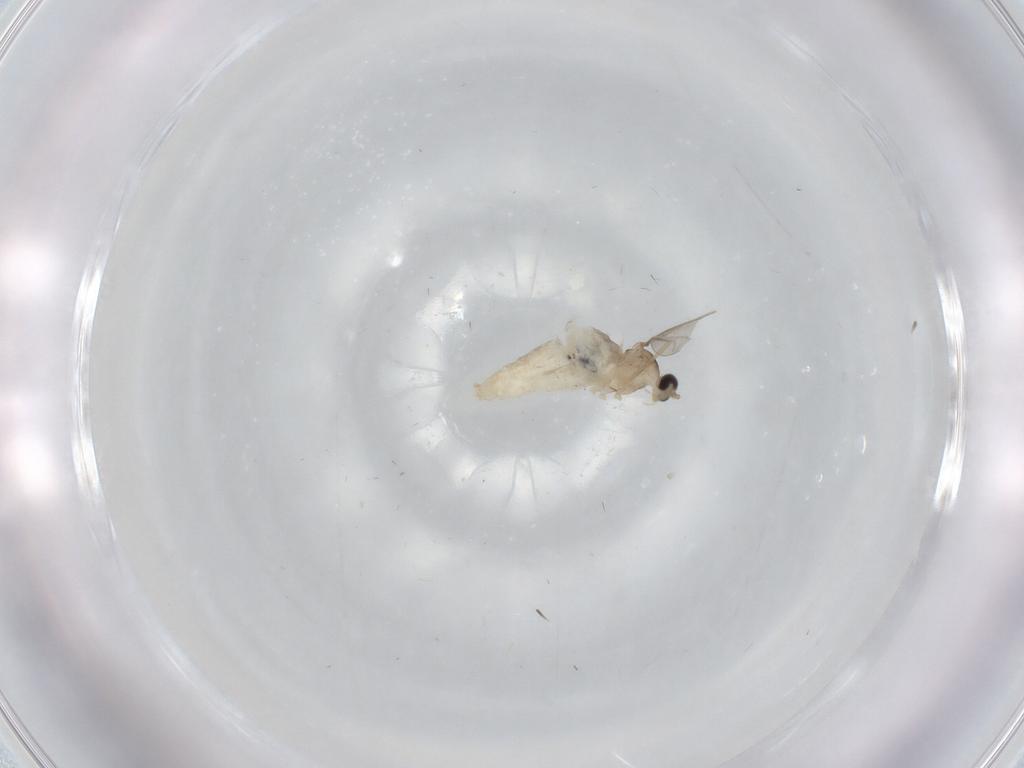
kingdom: Animalia
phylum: Arthropoda
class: Insecta
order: Diptera
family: Cecidomyiidae
